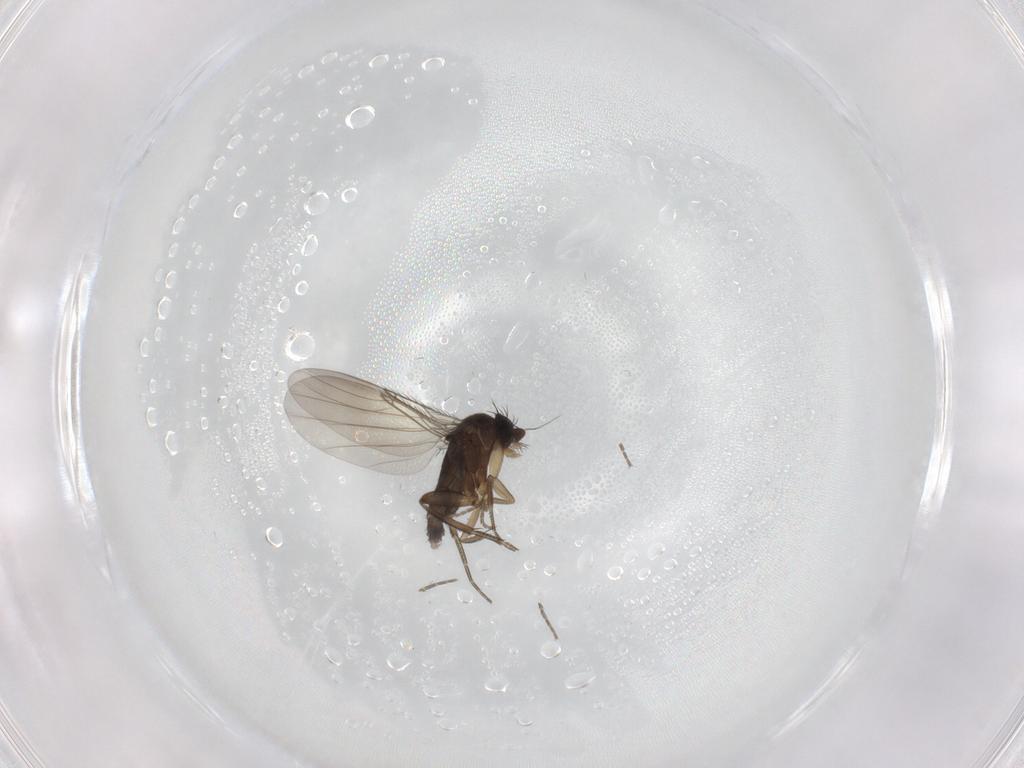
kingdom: Animalia
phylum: Arthropoda
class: Insecta
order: Diptera
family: Phoridae
